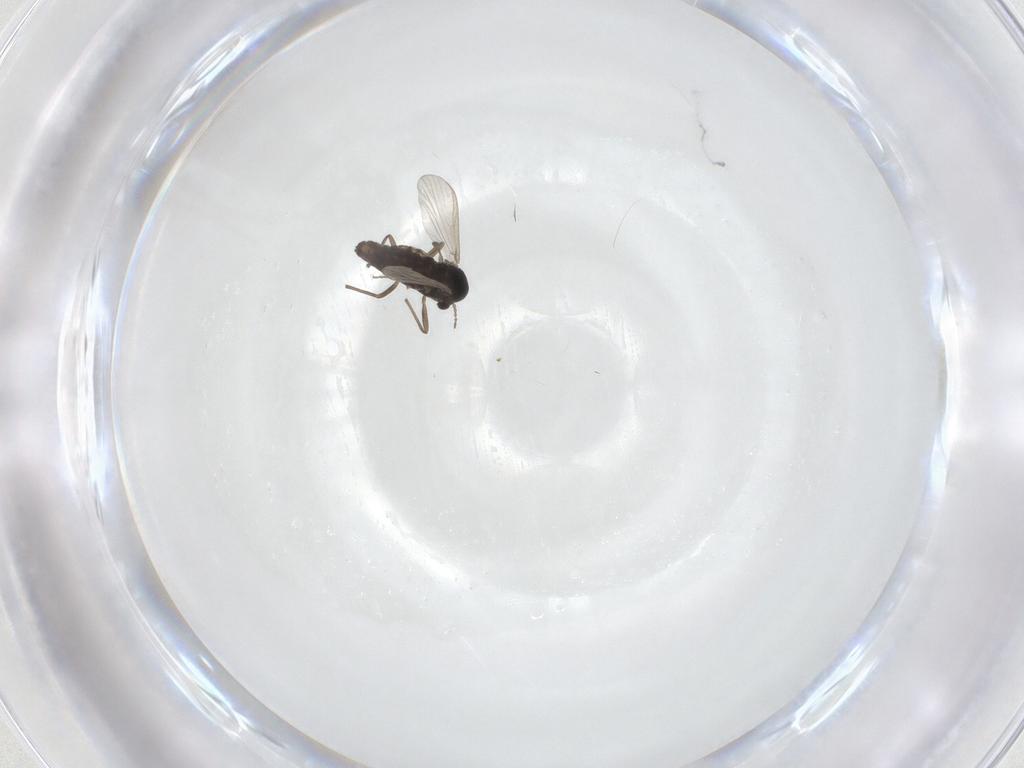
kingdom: Animalia
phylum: Arthropoda
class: Insecta
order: Diptera
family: Chironomidae
